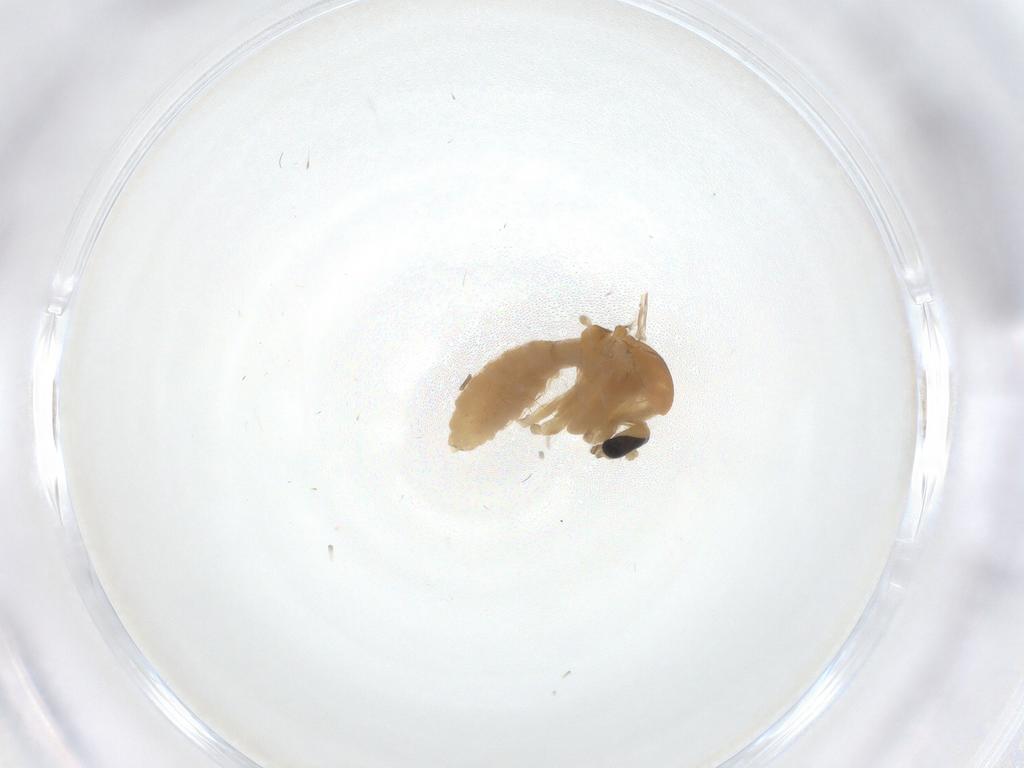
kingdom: Animalia
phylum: Arthropoda
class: Insecta
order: Diptera
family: Chironomidae
